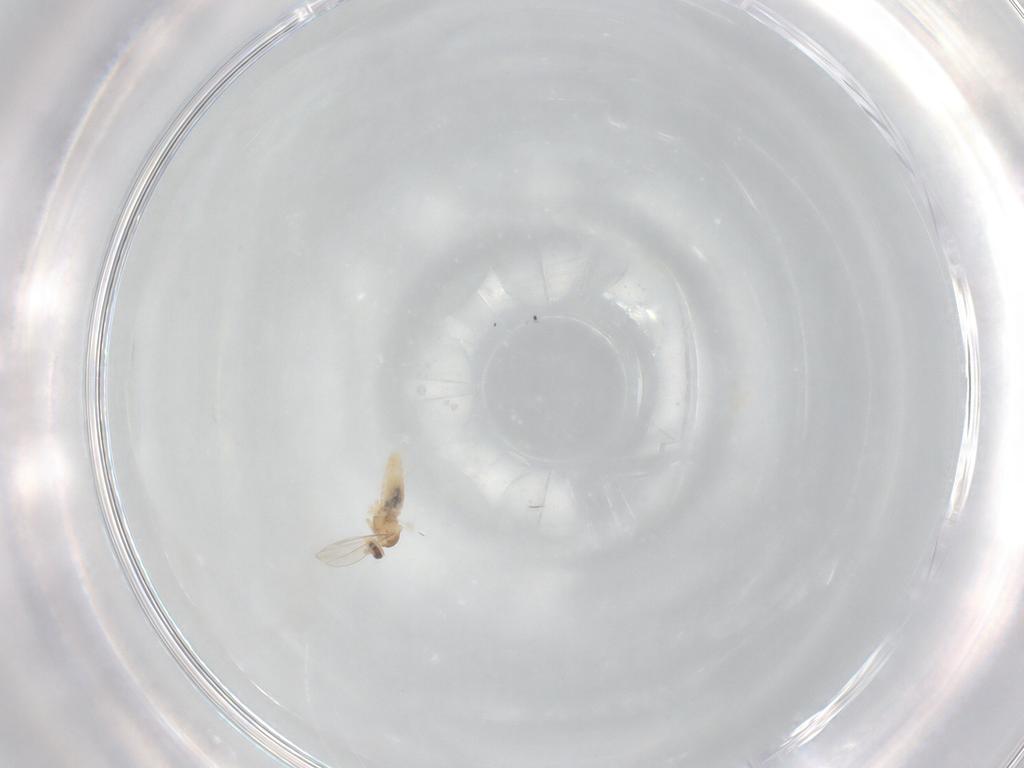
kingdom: Animalia
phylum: Arthropoda
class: Insecta
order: Diptera
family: Cecidomyiidae
